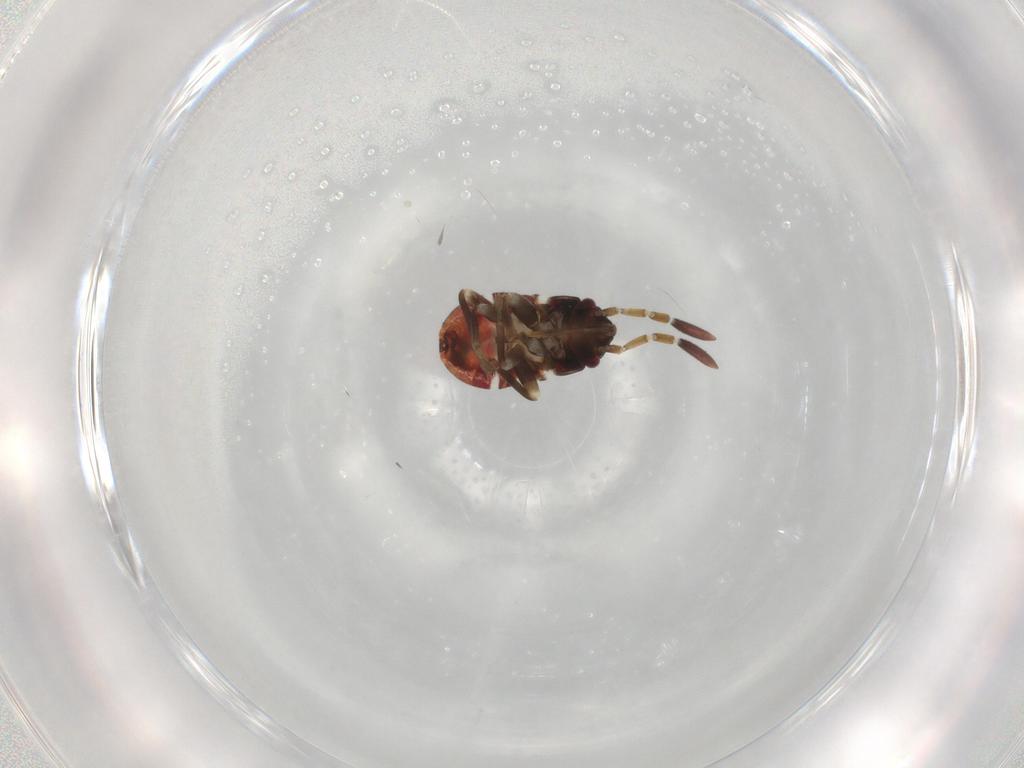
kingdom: Animalia
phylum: Arthropoda
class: Insecta
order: Hemiptera
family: Rhyparochromidae
